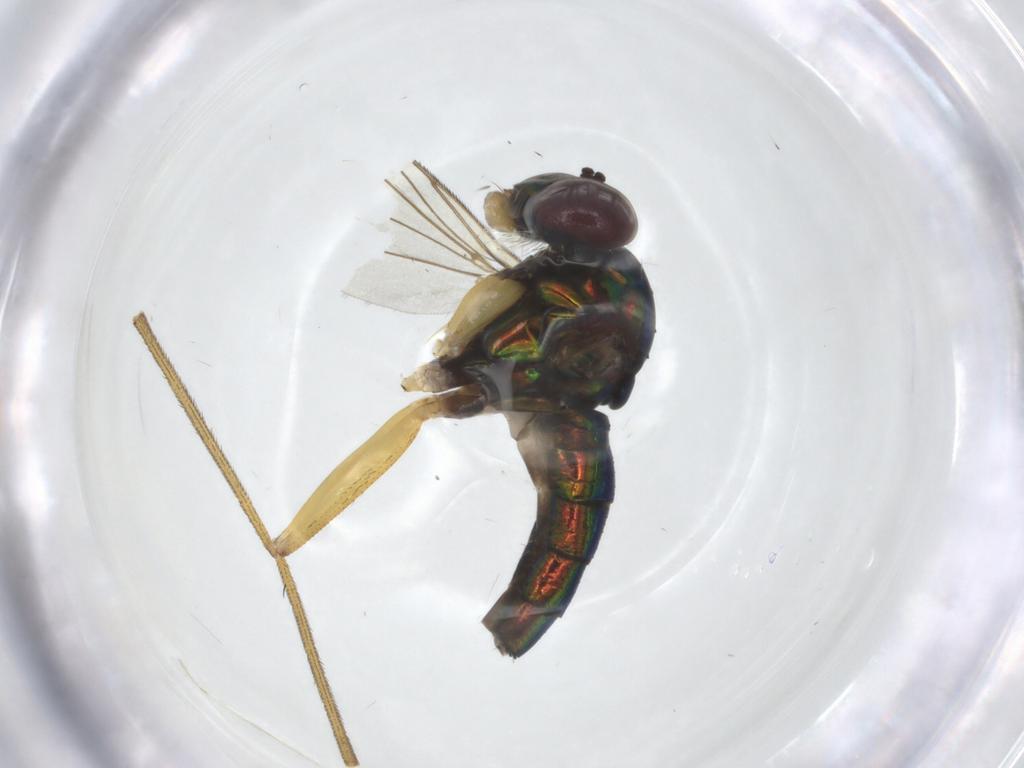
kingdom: Animalia
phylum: Arthropoda
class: Insecta
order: Diptera
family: Dolichopodidae
